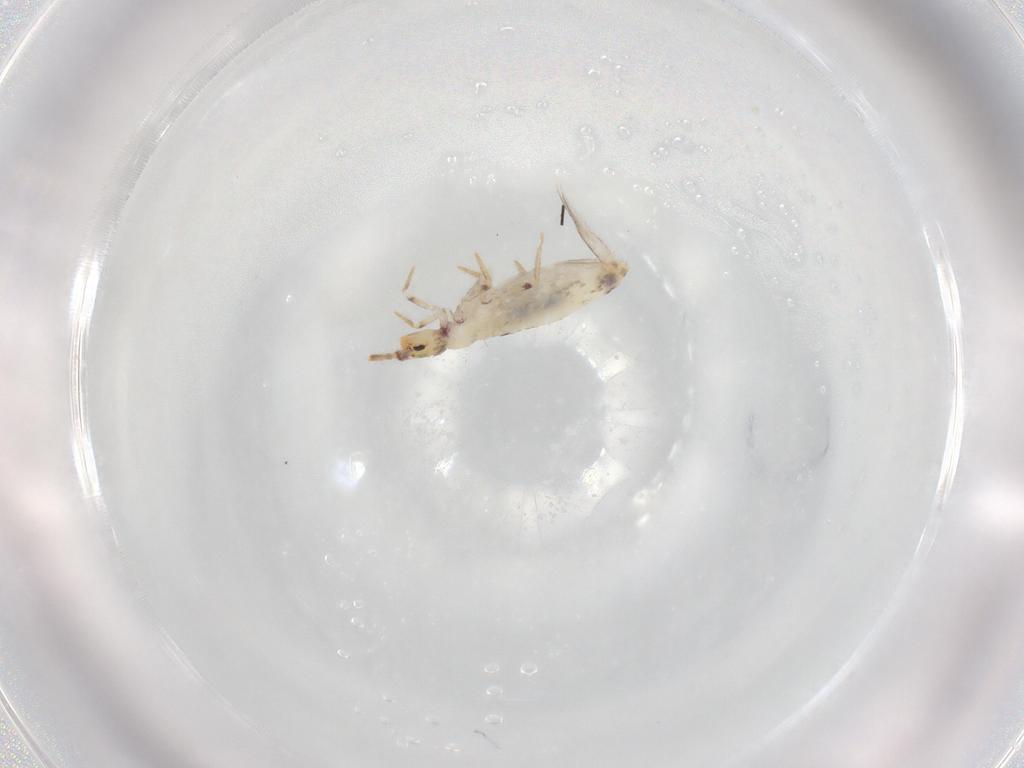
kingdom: Animalia
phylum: Arthropoda
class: Collembola
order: Entomobryomorpha
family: Entomobryidae
